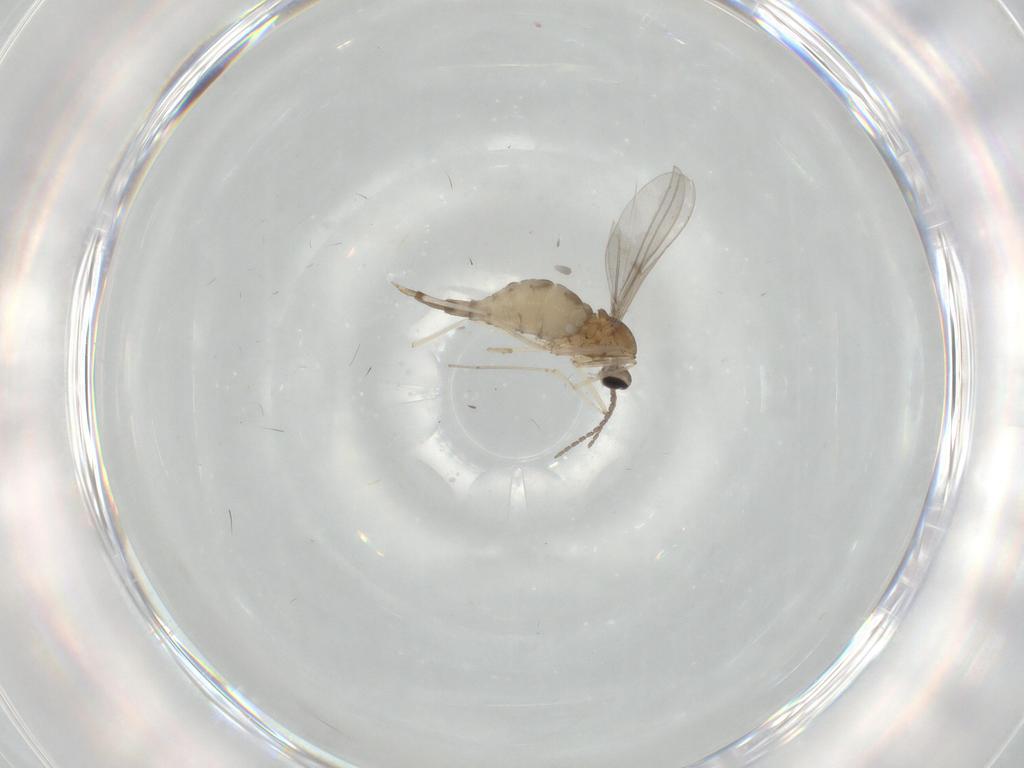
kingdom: Animalia
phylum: Arthropoda
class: Insecta
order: Diptera
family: Cecidomyiidae
